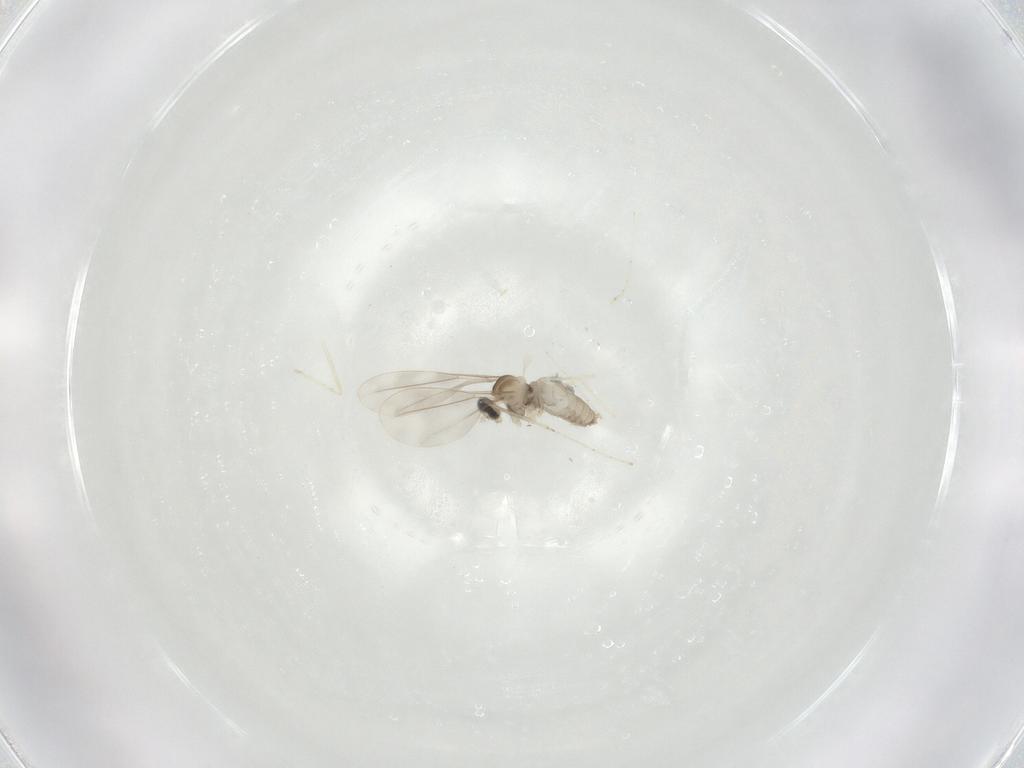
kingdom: Animalia
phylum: Arthropoda
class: Insecta
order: Diptera
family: Cecidomyiidae
